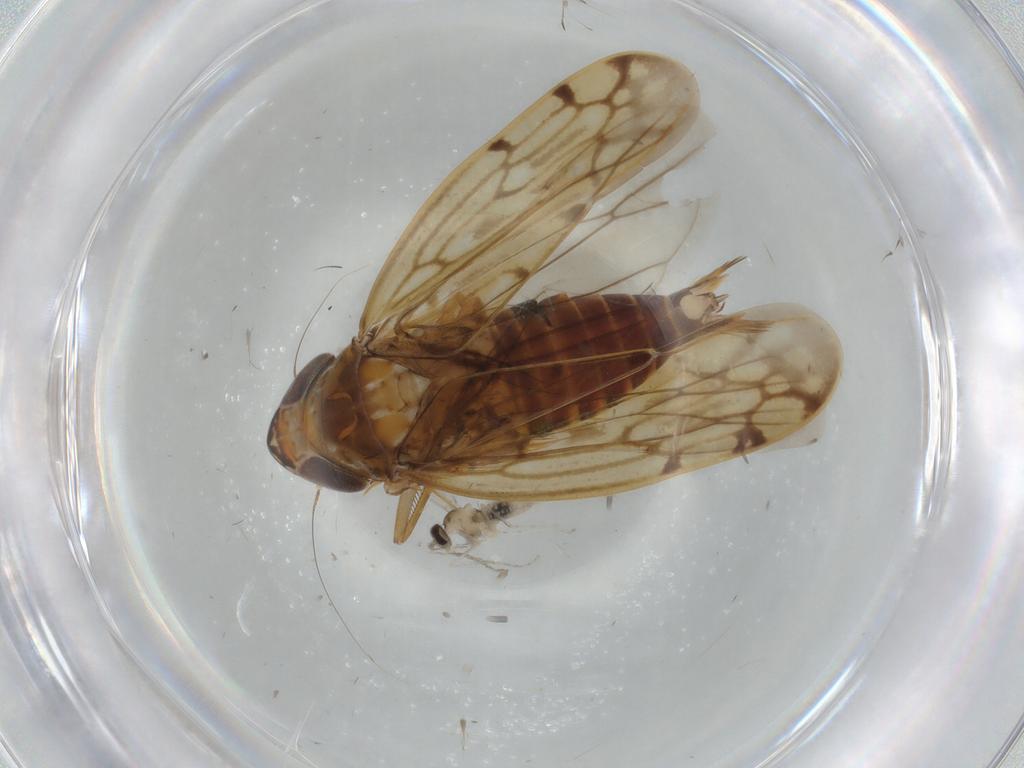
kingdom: Animalia
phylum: Arthropoda
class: Insecta
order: Hemiptera
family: Cicadellidae
